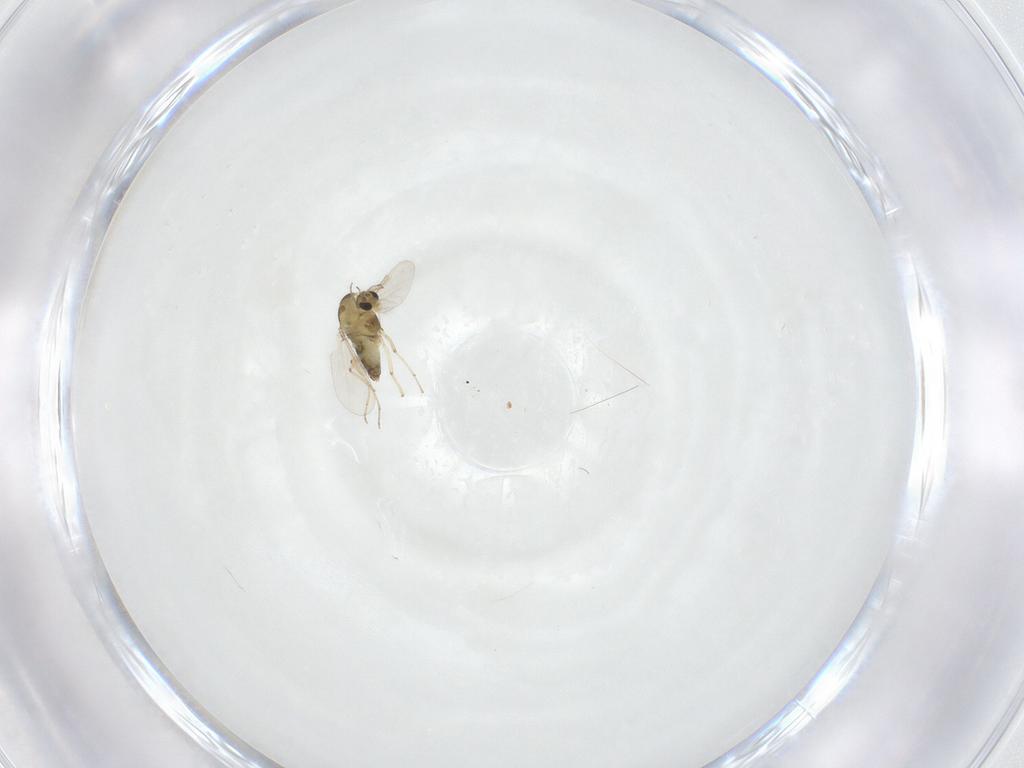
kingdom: Animalia
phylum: Arthropoda
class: Insecta
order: Diptera
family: Chironomidae
